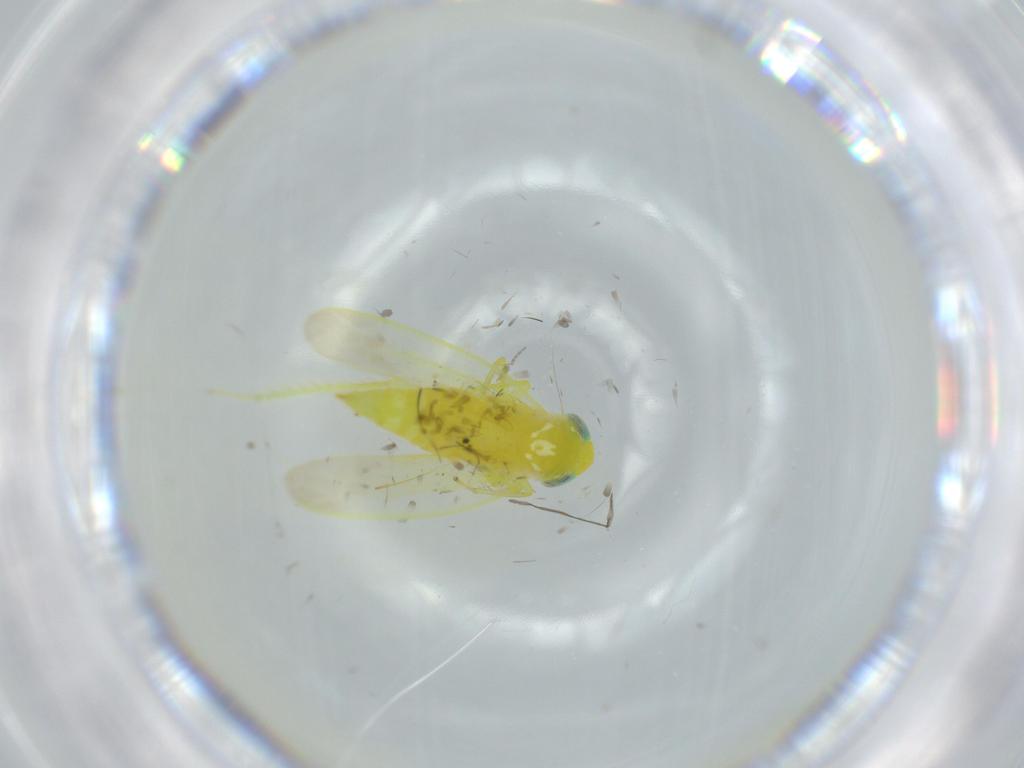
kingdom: Animalia
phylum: Arthropoda
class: Insecta
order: Hemiptera
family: Cicadellidae
